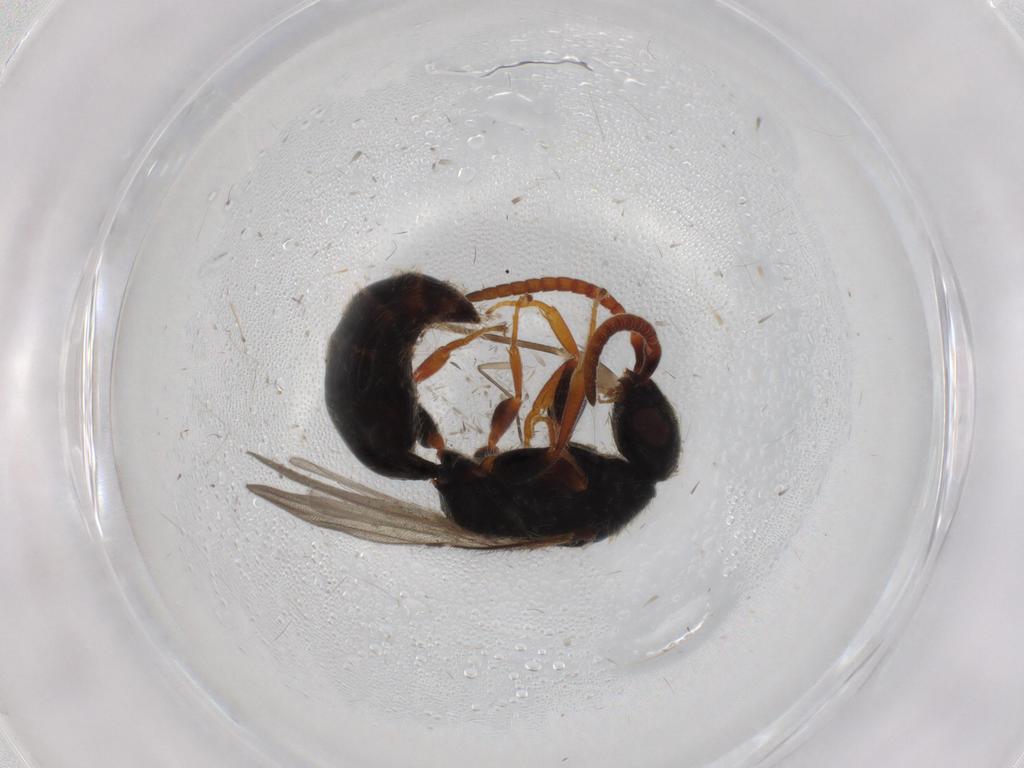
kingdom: Animalia
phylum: Arthropoda
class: Insecta
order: Hymenoptera
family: Bethylidae
